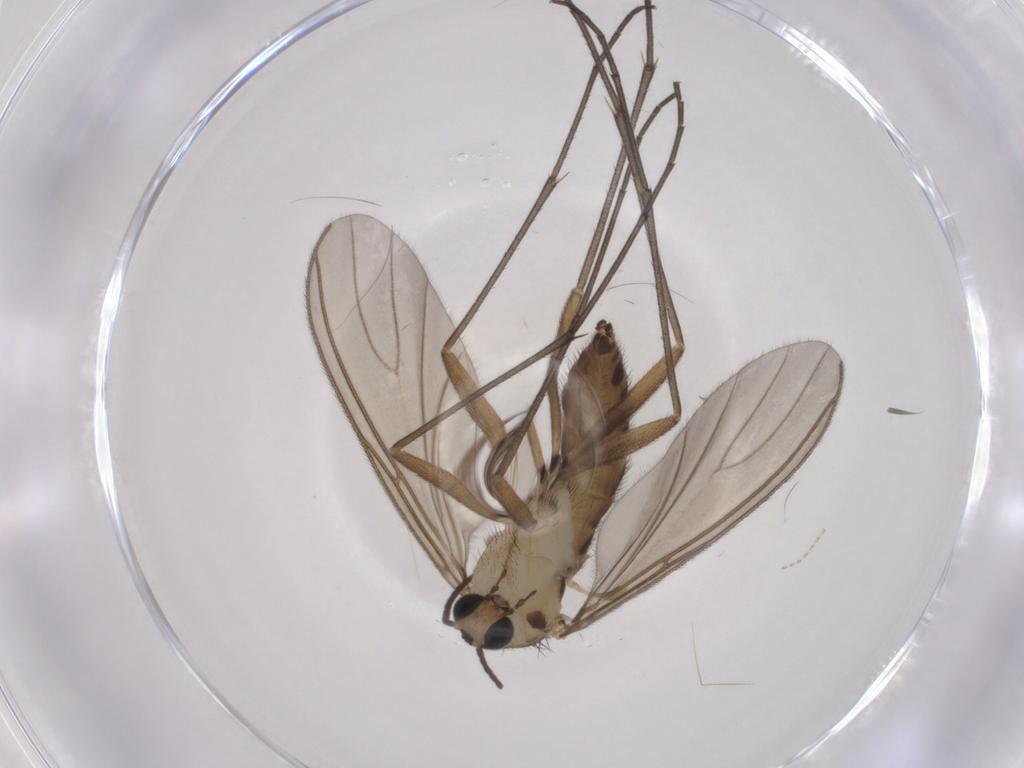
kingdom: Animalia
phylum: Arthropoda
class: Insecta
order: Diptera
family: Sciaridae
